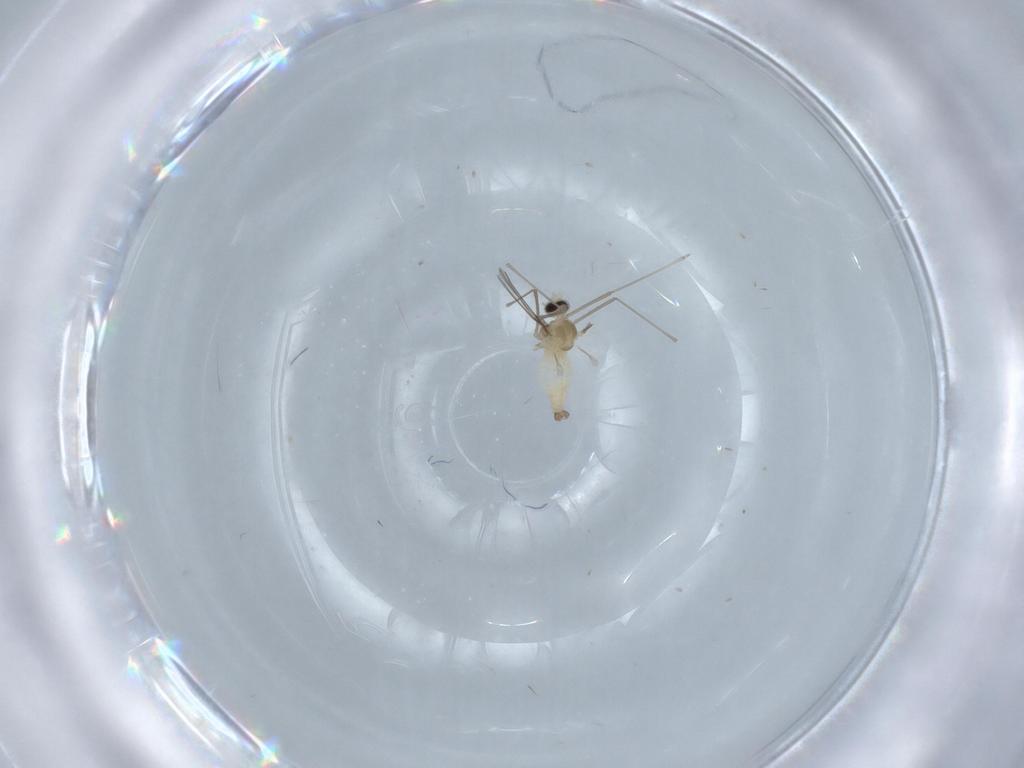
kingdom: Animalia
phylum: Arthropoda
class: Insecta
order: Diptera
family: Cecidomyiidae
